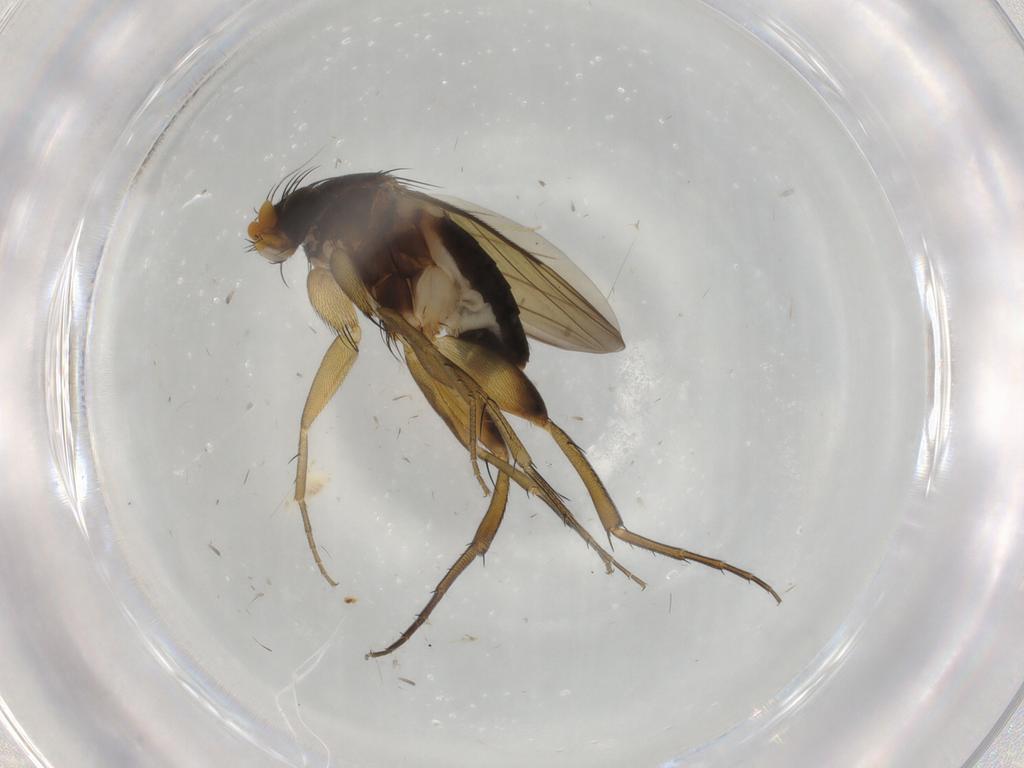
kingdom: Animalia
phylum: Arthropoda
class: Insecta
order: Diptera
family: Phoridae
